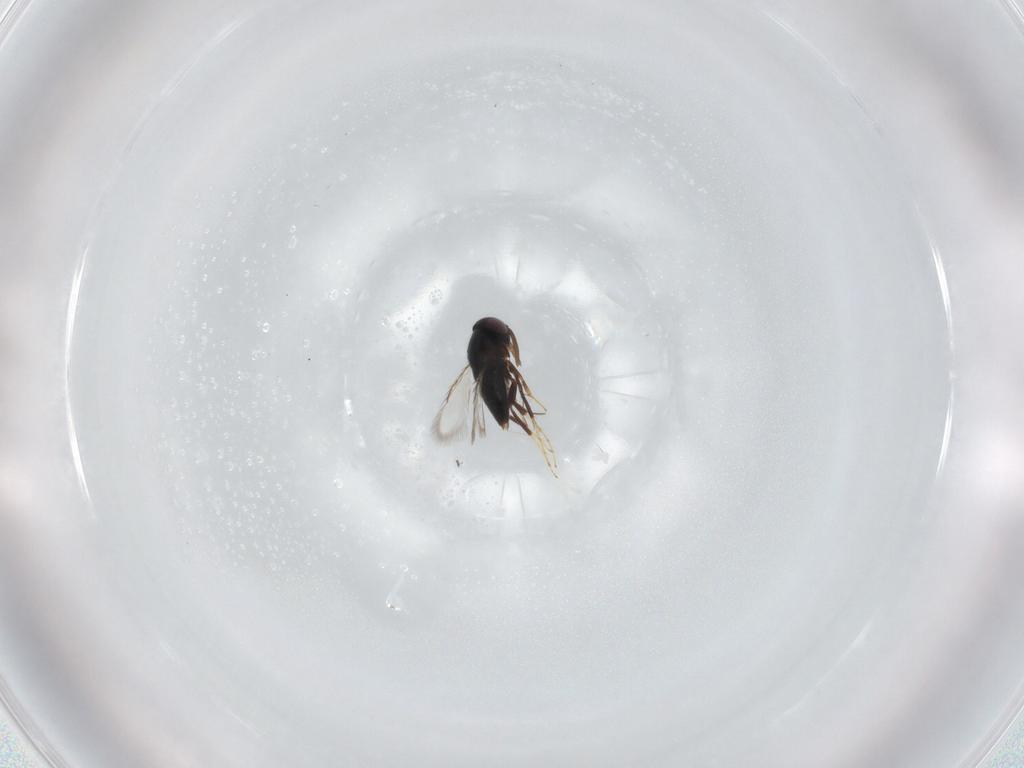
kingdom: Animalia
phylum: Arthropoda
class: Insecta
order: Hymenoptera
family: Signiphoridae
